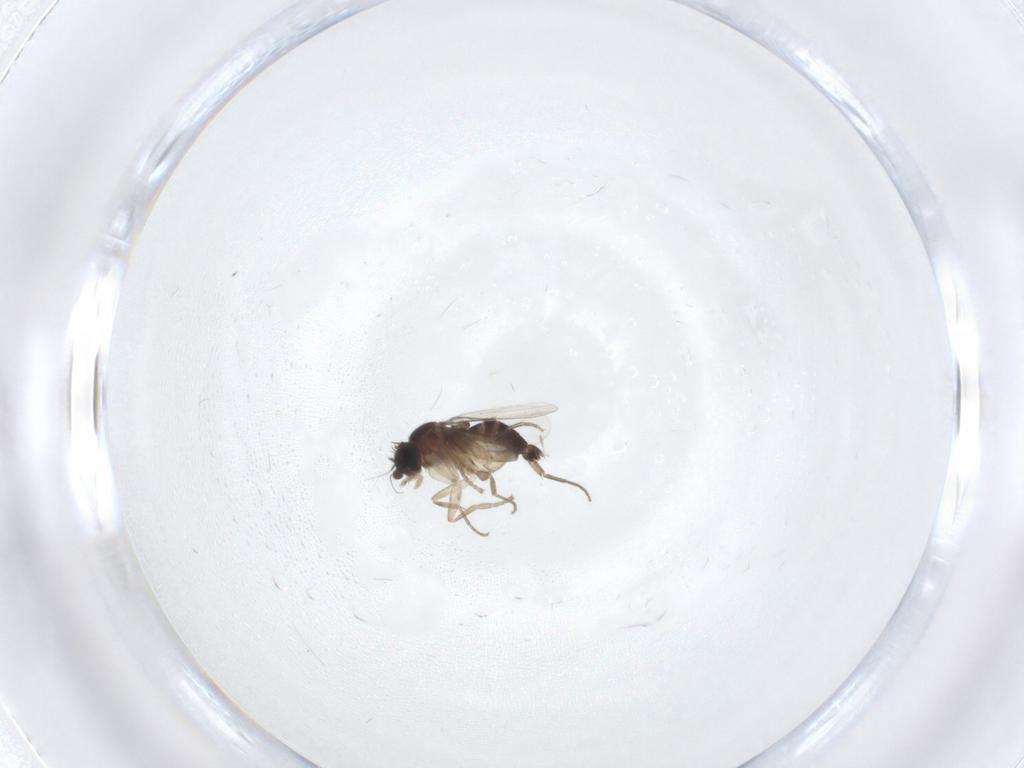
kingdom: Animalia
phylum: Arthropoda
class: Insecta
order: Diptera
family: Phoridae
